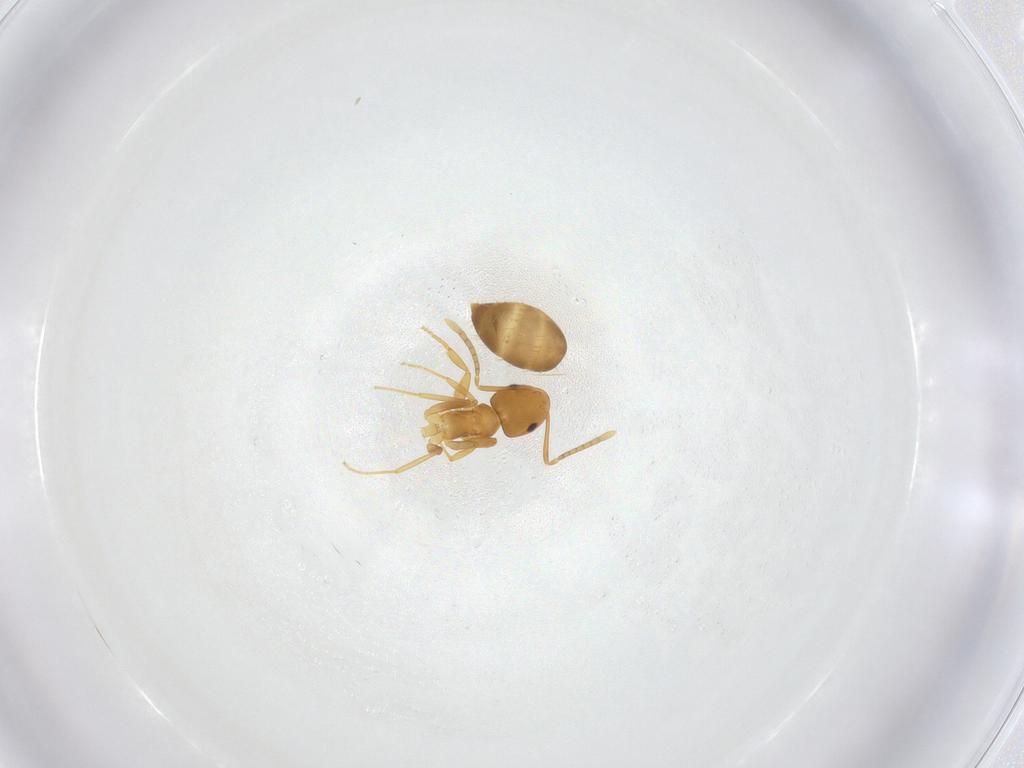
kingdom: Animalia
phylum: Arthropoda
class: Insecta
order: Hymenoptera
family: Formicidae
